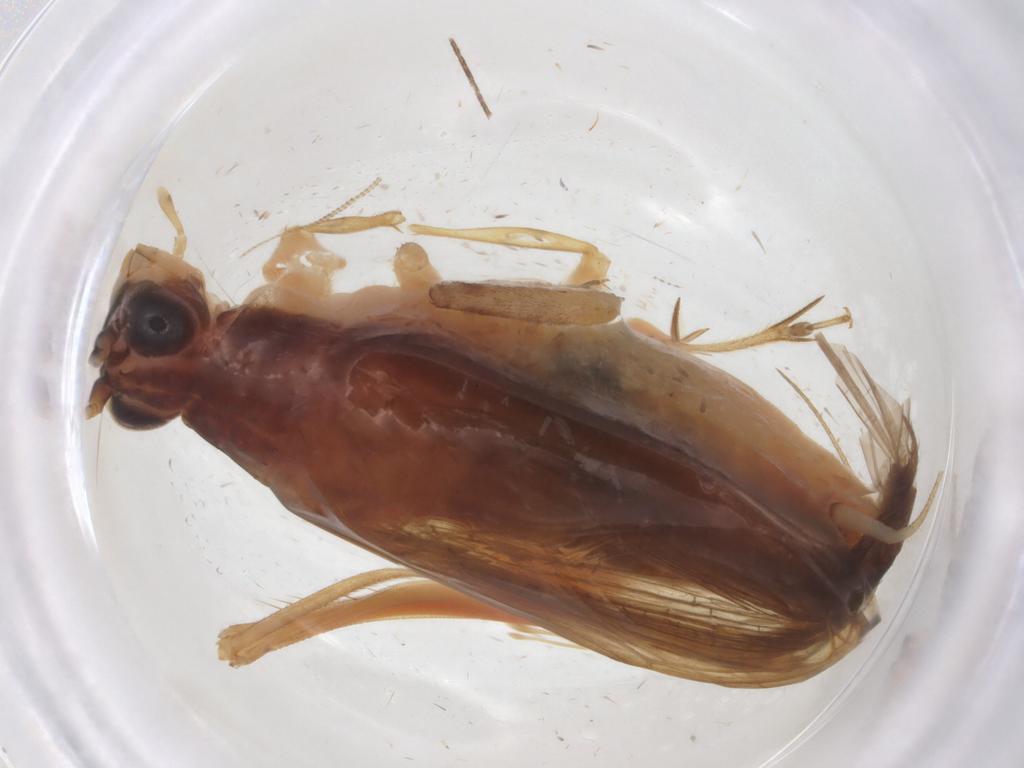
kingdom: Animalia
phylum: Arthropoda
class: Insecta
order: Orthoptera
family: Trigonidiidae
